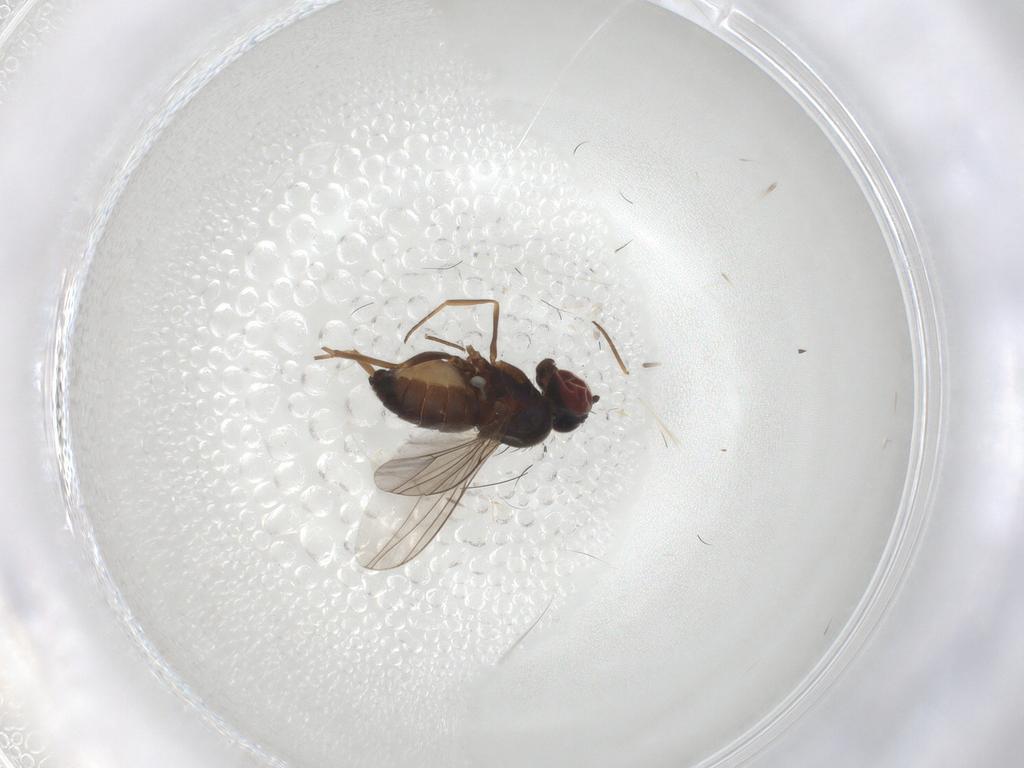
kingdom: Animalia
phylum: Arthropoda
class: Insecta
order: Diptera
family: Dolichopodidae
